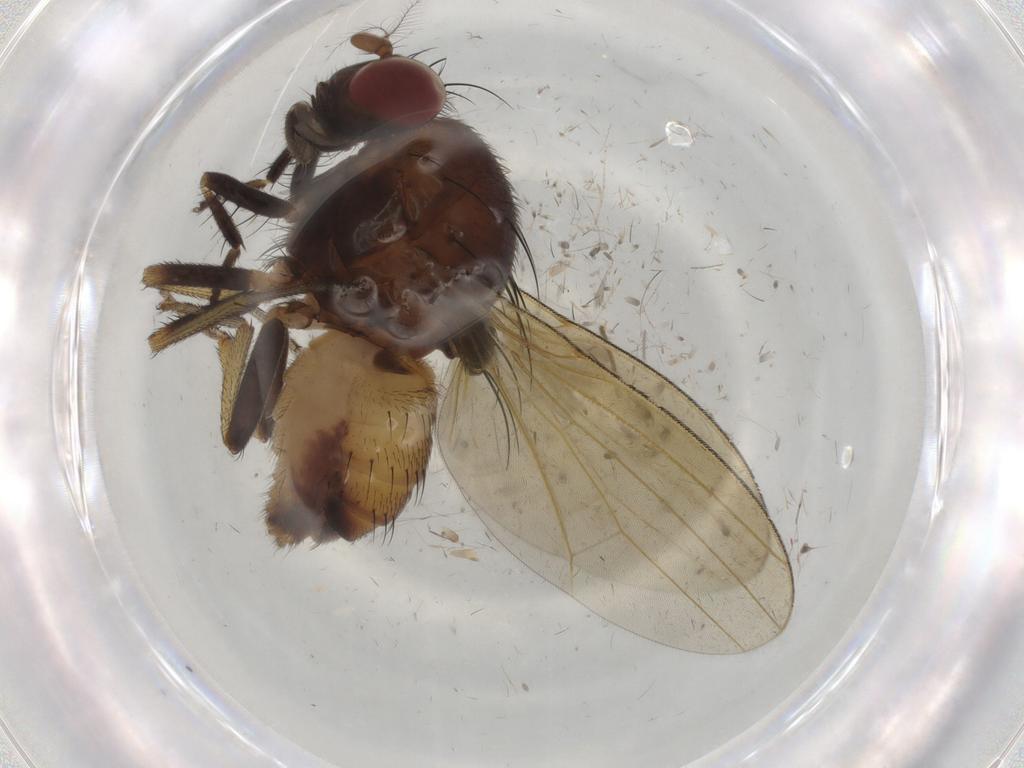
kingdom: Animalia
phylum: Arthropoda
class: Insecta
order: Diptera
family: Cecidomyiidae
